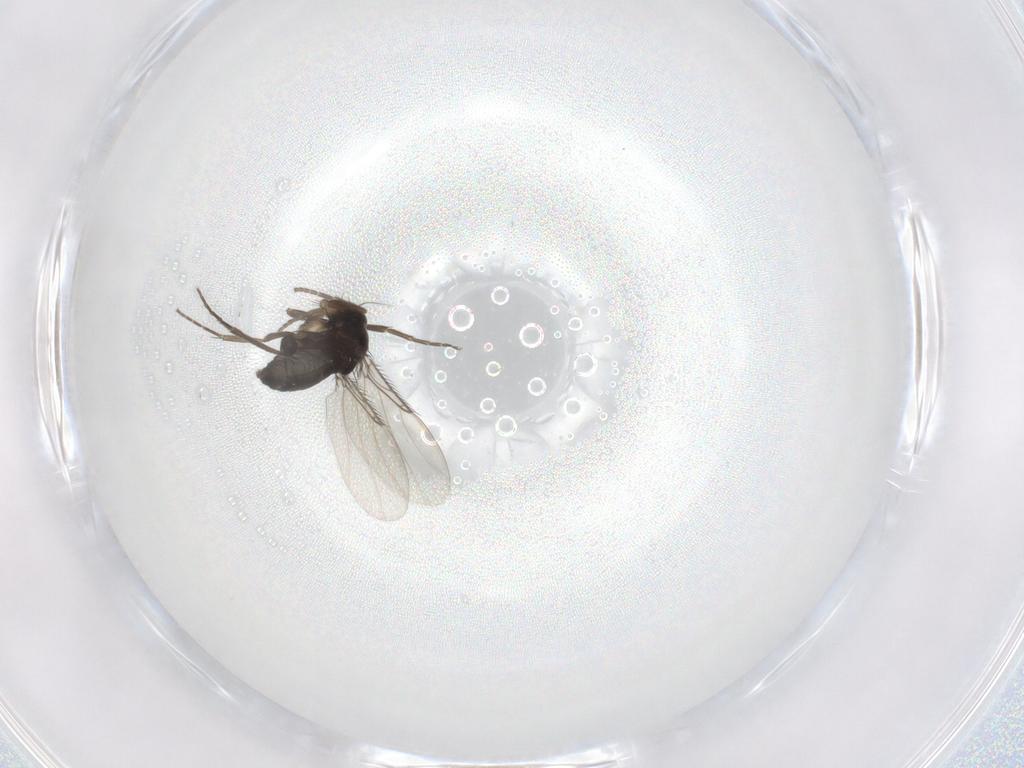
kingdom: Animalia
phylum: Arthropoda
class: Insecta
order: Diptera
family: Phoridae
